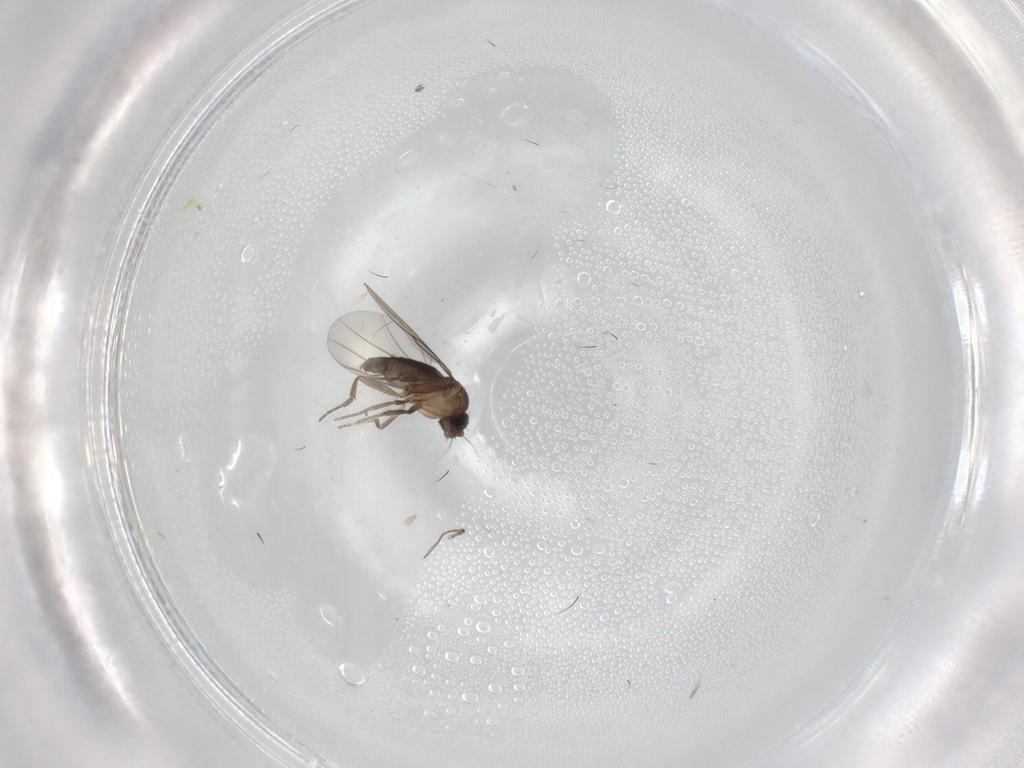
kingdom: Animalia
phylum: Arthropoda
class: Insecta
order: Diptera
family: Phoridae
